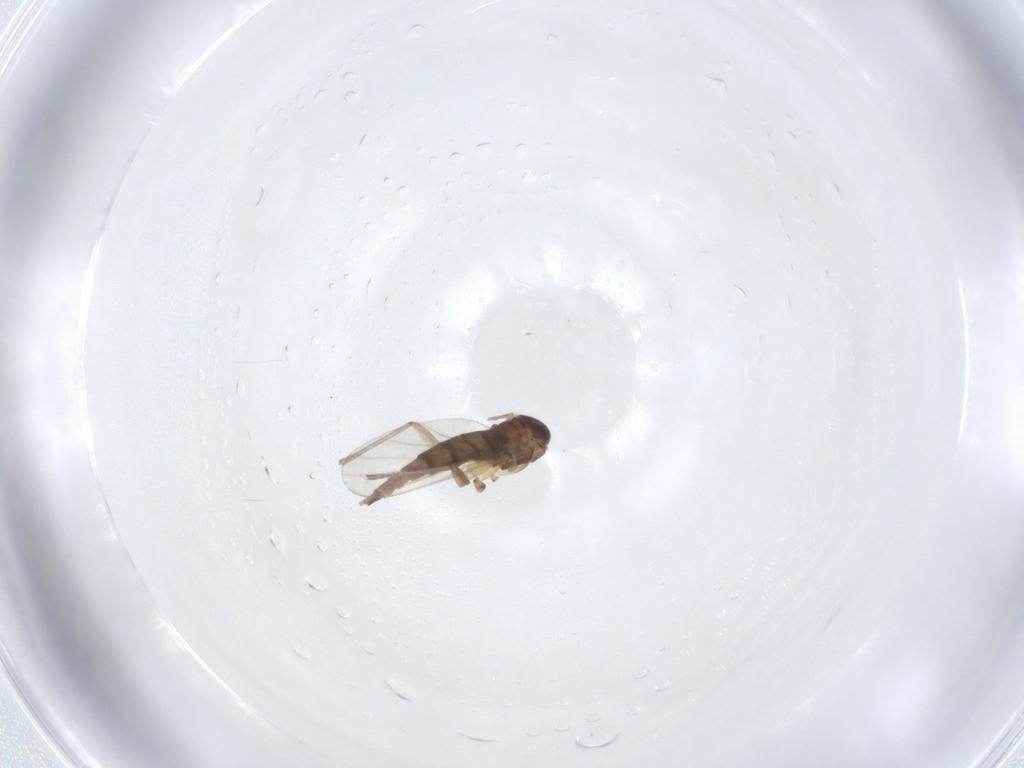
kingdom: Animalia
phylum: Arthropoda
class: Insecta
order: Diptera
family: Dolichopodidae
